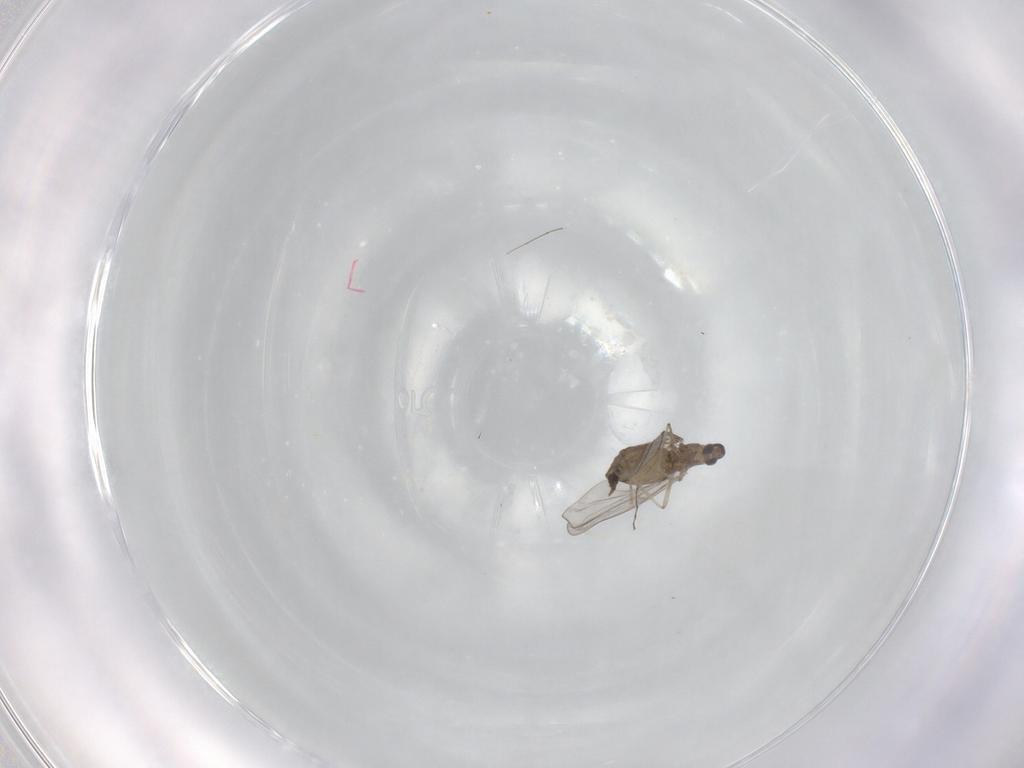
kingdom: Animalia
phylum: Arthropoda
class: Insecta
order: Diptera
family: Cecidomyiidae
